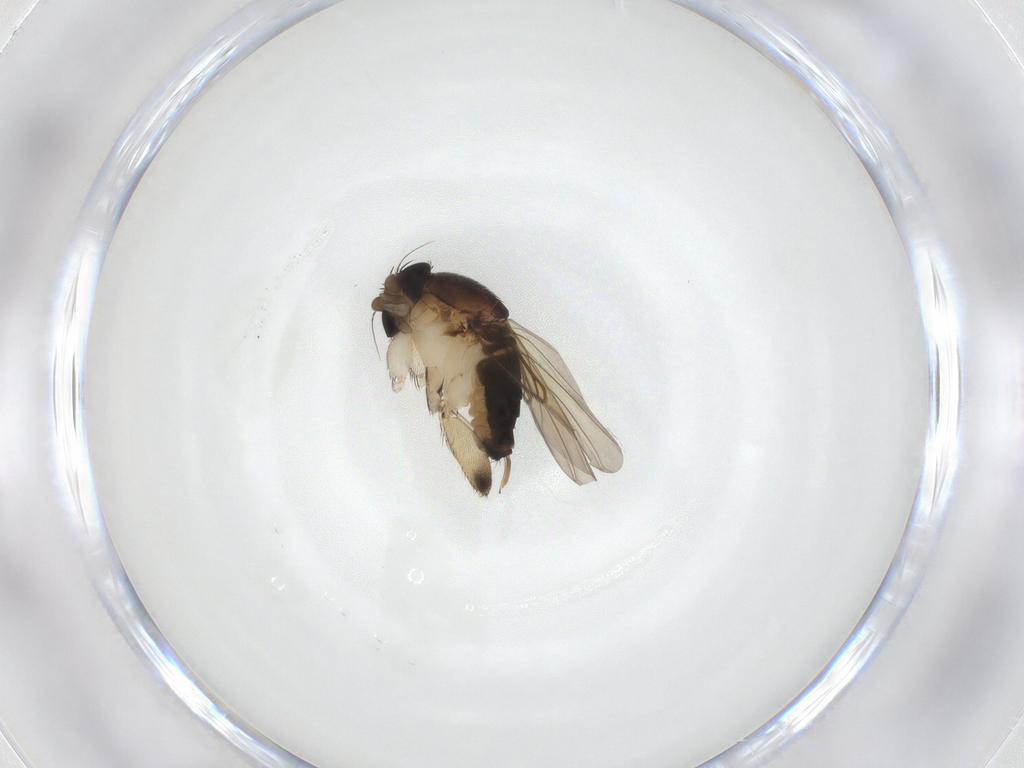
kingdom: Animalia
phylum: Arthropoda
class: Insecta
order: Diptera
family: Phoridae
